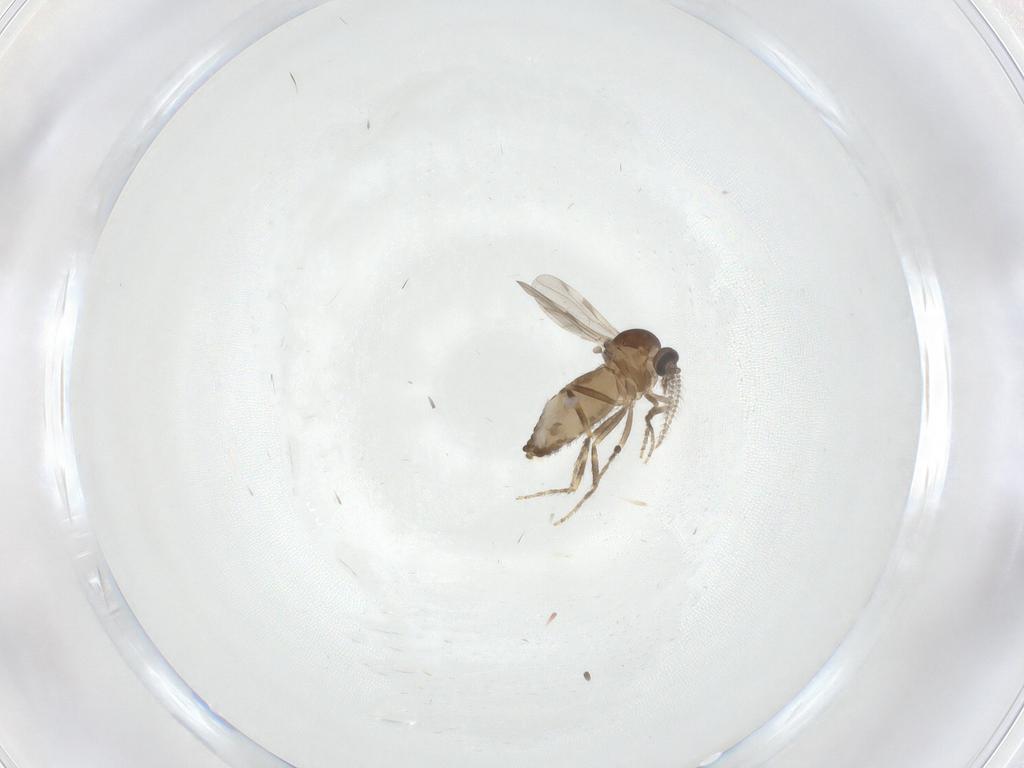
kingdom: Animalia
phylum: Arthropoda
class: Insecta
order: Diptera
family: Ceratopogonidae
